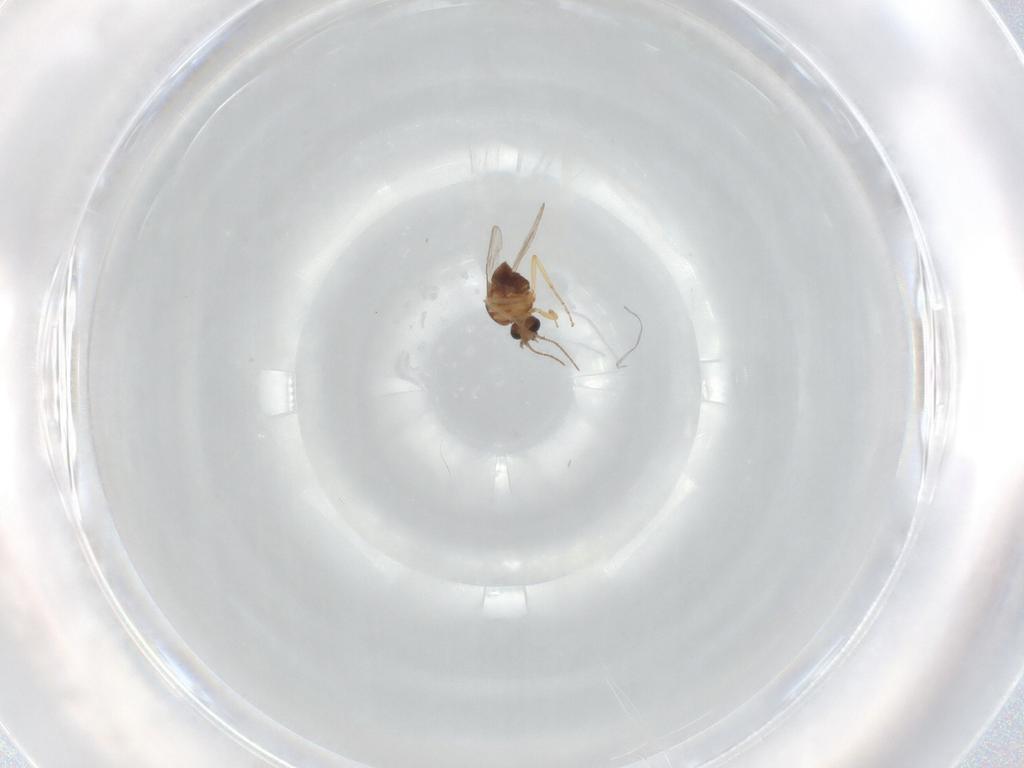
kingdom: Animalia
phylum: Arthropoda
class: Insecta
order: Diptera
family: Ceratopogonidae
